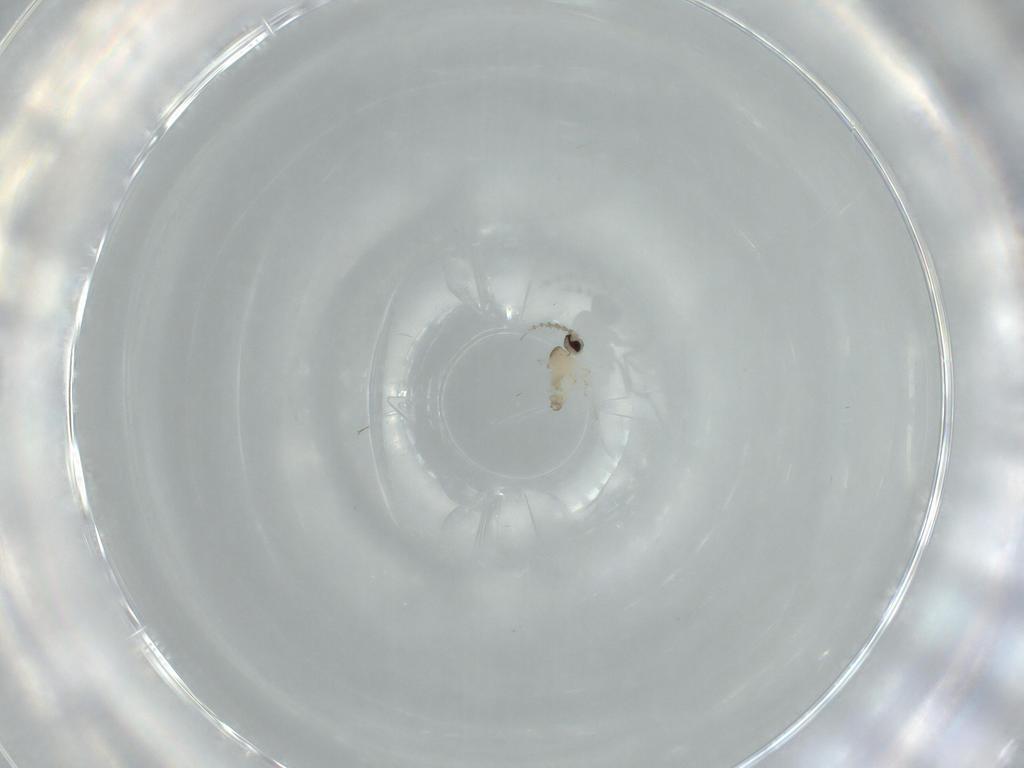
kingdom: Animalia
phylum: Arthropoda
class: Insecta
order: Diptera
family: Cecidomyiidae
